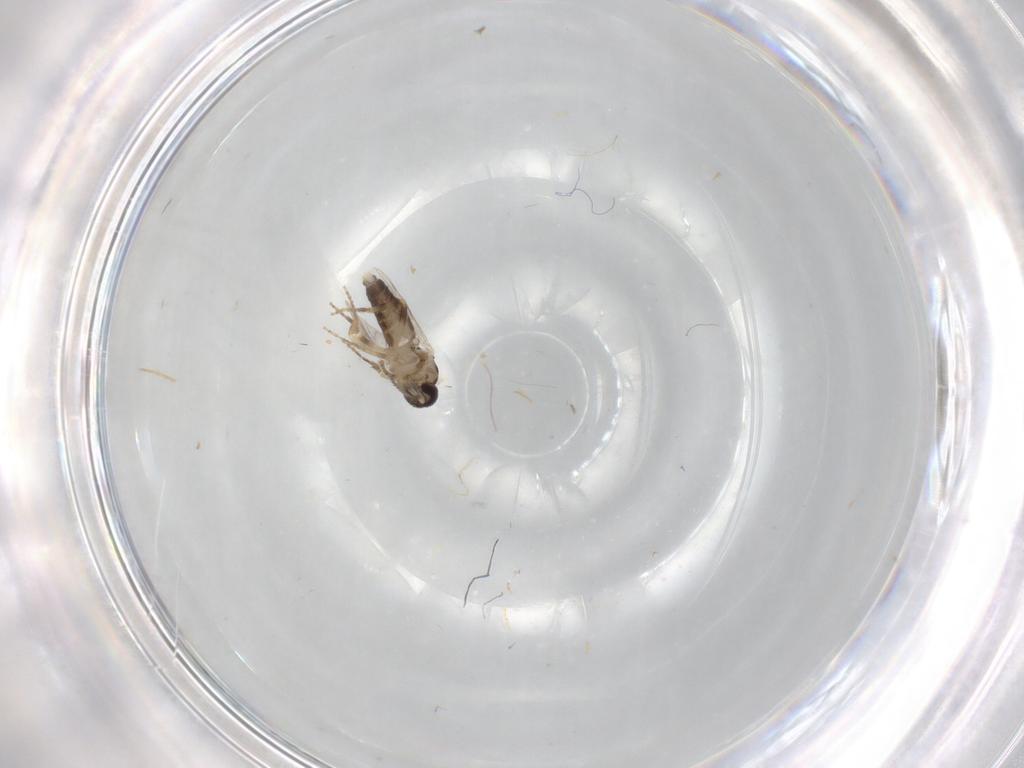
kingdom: Animalia
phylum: Arthropoda
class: Insecta
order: Diptera
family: Ceratopogonidae
